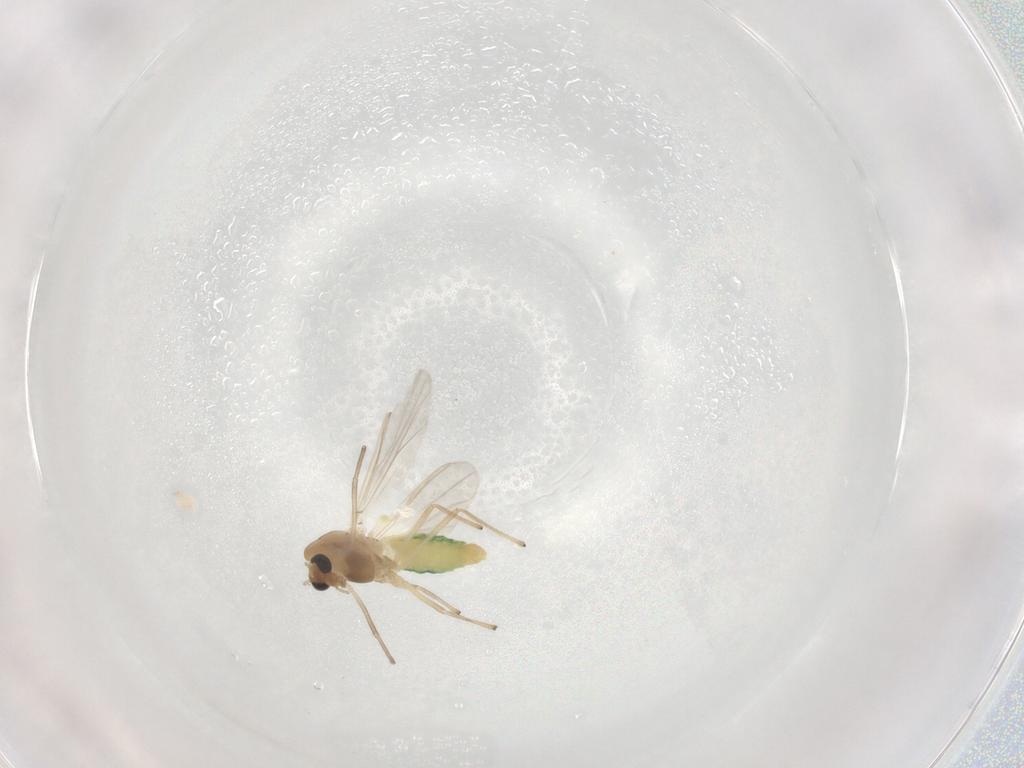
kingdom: Animalia
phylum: Arthropoda
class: Insecta
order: Diptera
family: Chironomidae
